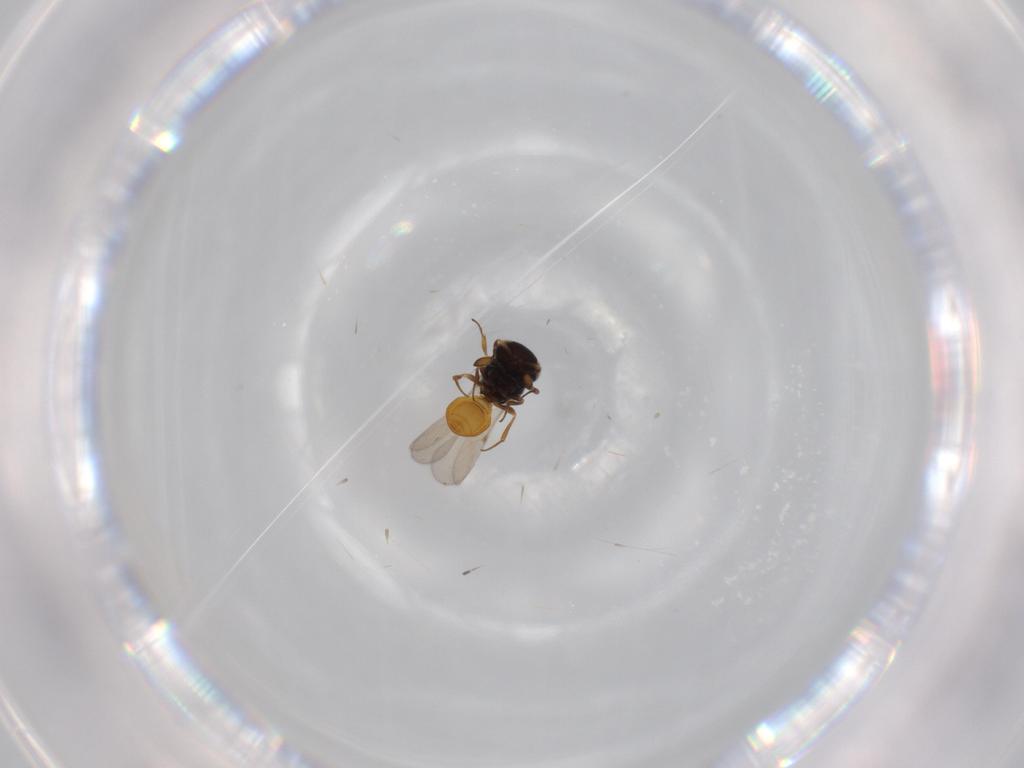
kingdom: Animalia
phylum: Arthropoda
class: Insecta
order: Hymenoptera
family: Scelionidae
